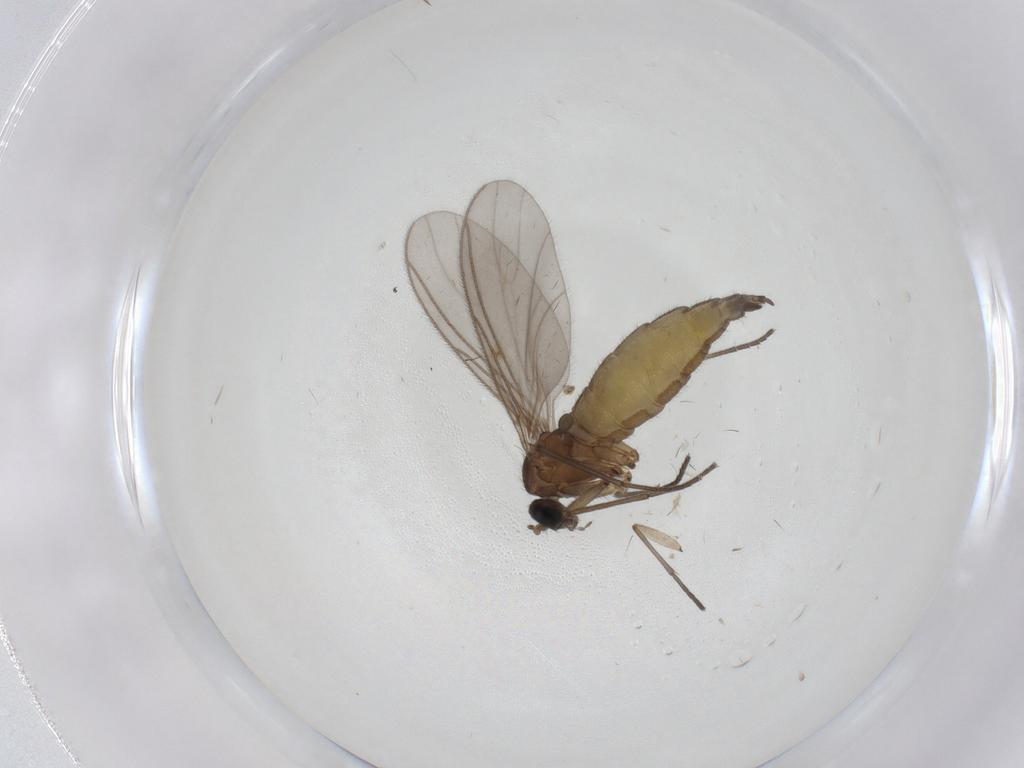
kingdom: Animalia
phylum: Arthropoda
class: Insecta
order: Diptera
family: Sciaridae
